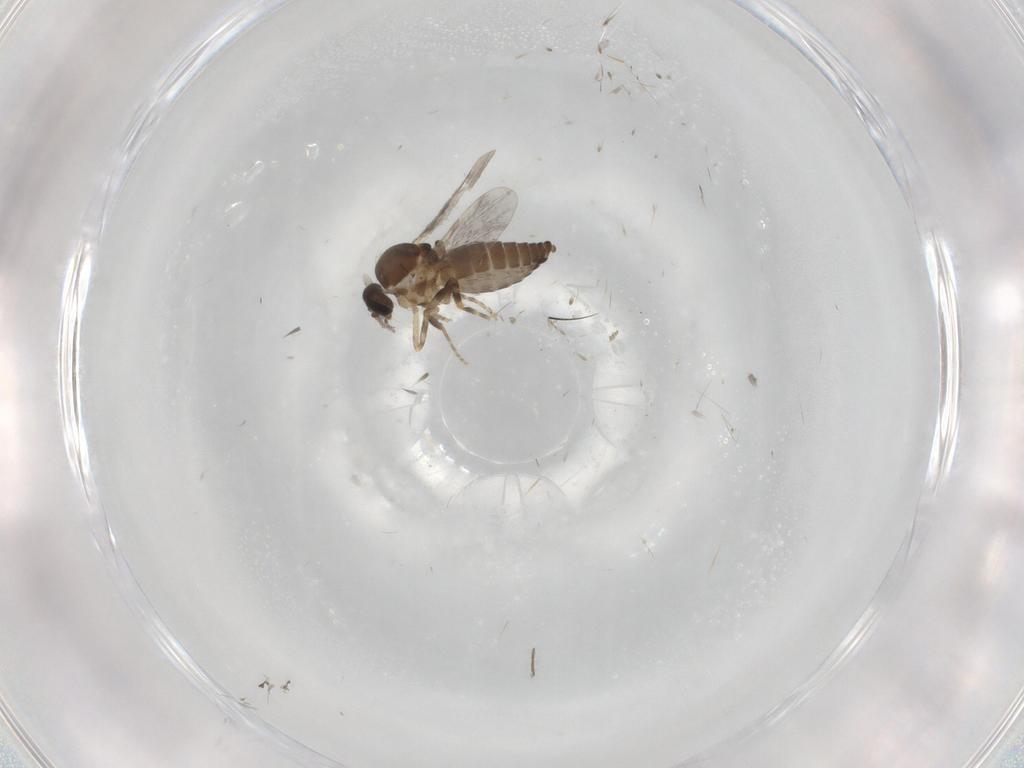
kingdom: Animalia
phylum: Arthropoda
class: Insecta
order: Diptera
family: Ceratopogonidae
